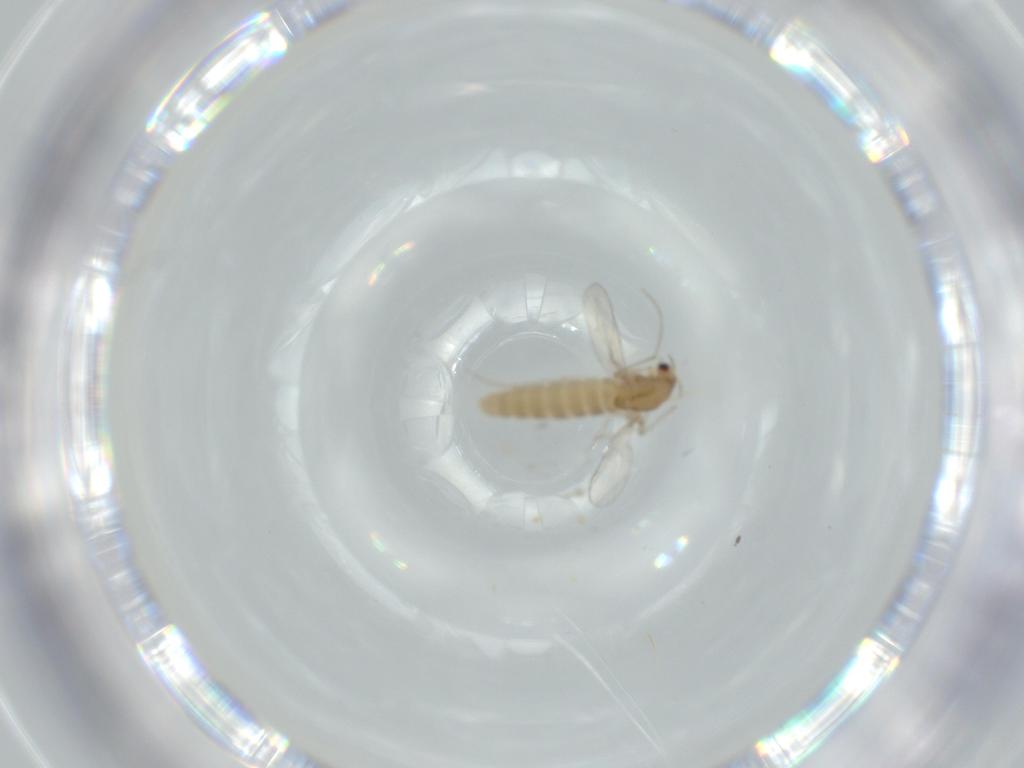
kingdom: Animalia
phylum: Arthropoda
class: Insecta
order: Diptera
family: Chironomidae
